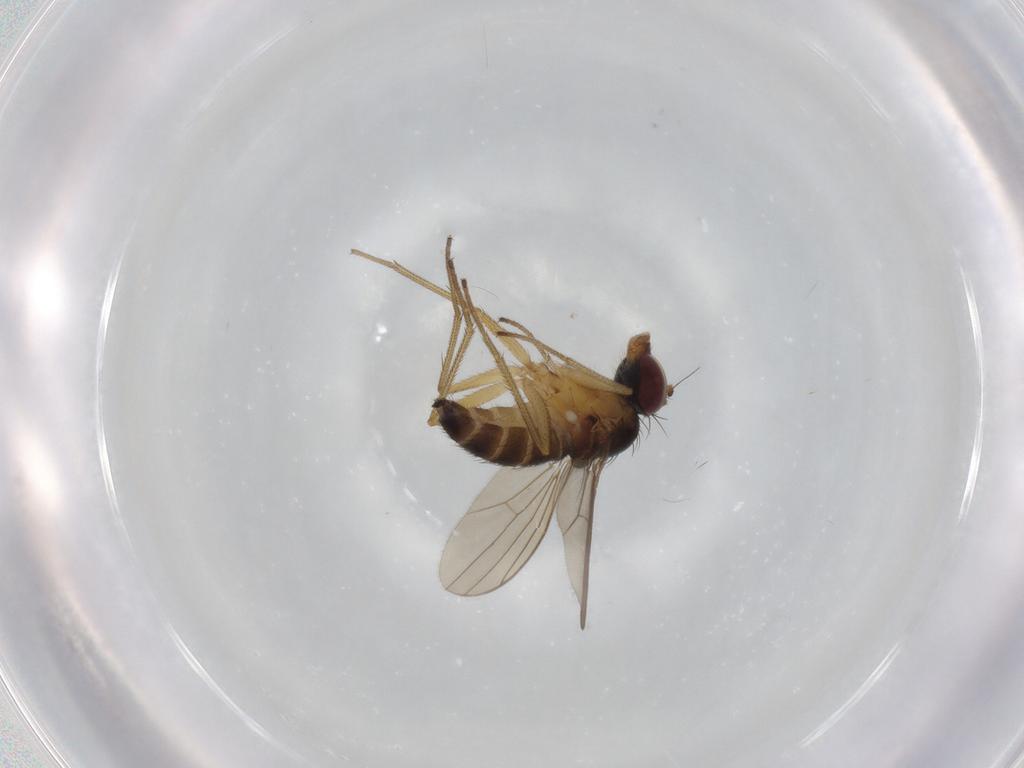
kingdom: Animalia
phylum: Arthropoda
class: Insecta
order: Diptera
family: Dolichopodidae
